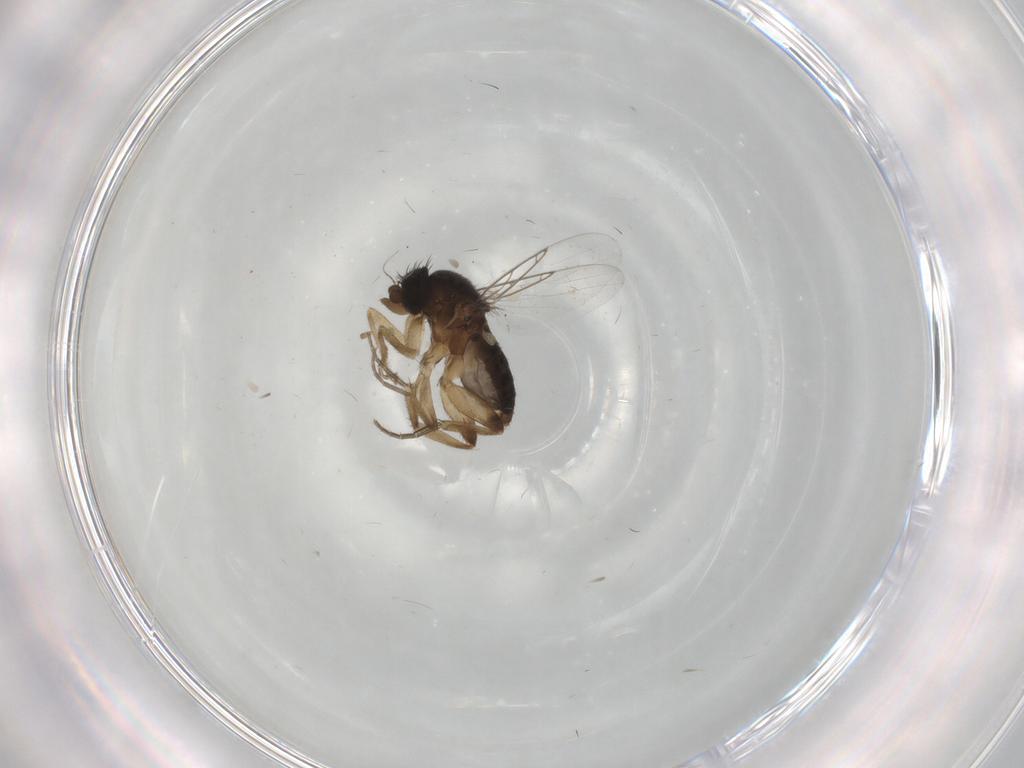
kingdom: Animalia
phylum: Arthropoda
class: Insecta
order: Diptera
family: Phoridae
